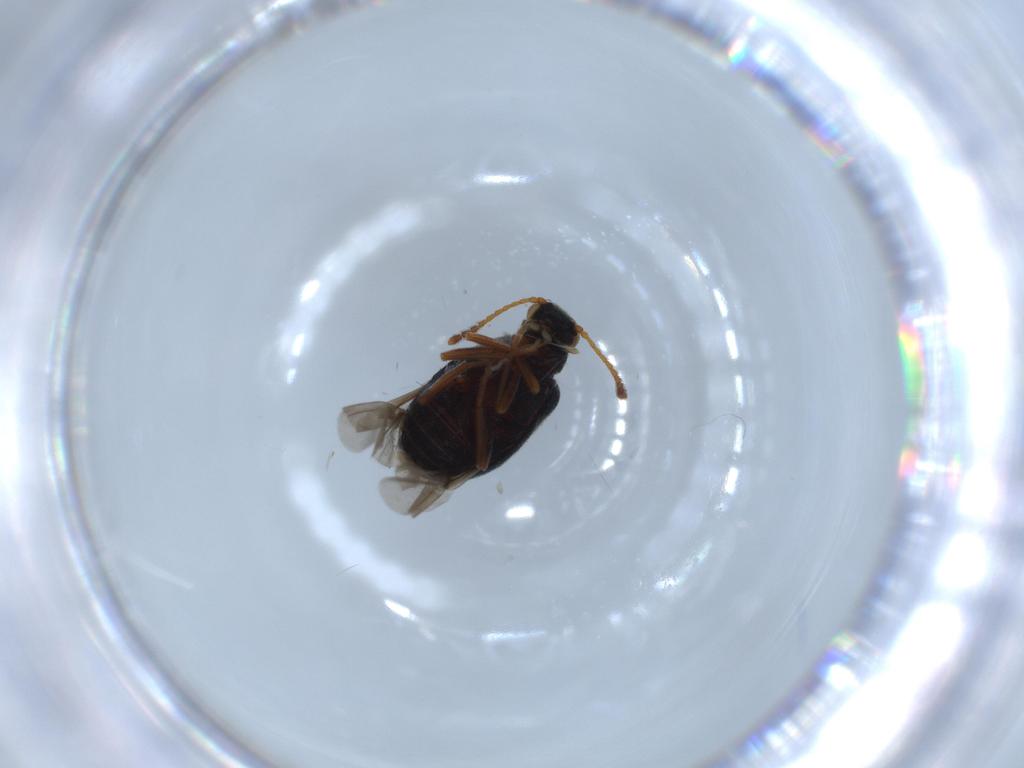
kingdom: Animalia
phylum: Arthropoda
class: Insecta
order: Coleoptera
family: Aderidae
